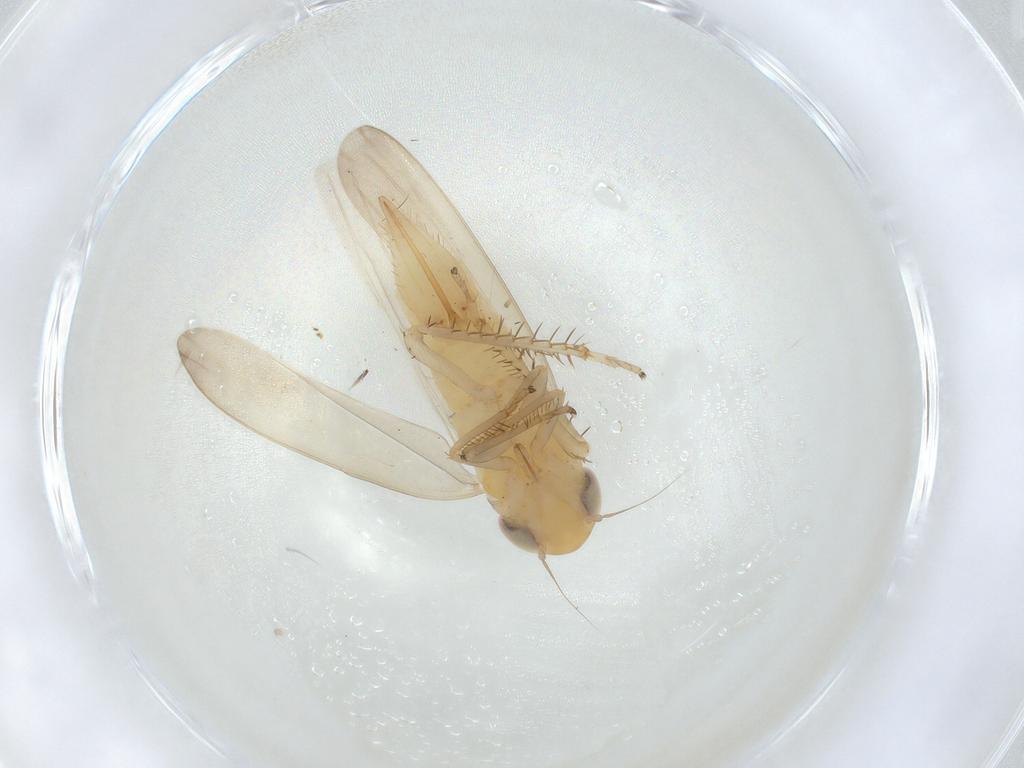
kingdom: Animalia
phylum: Arthropoda
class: Insecta
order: Hemiptera
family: Cicadellidae
